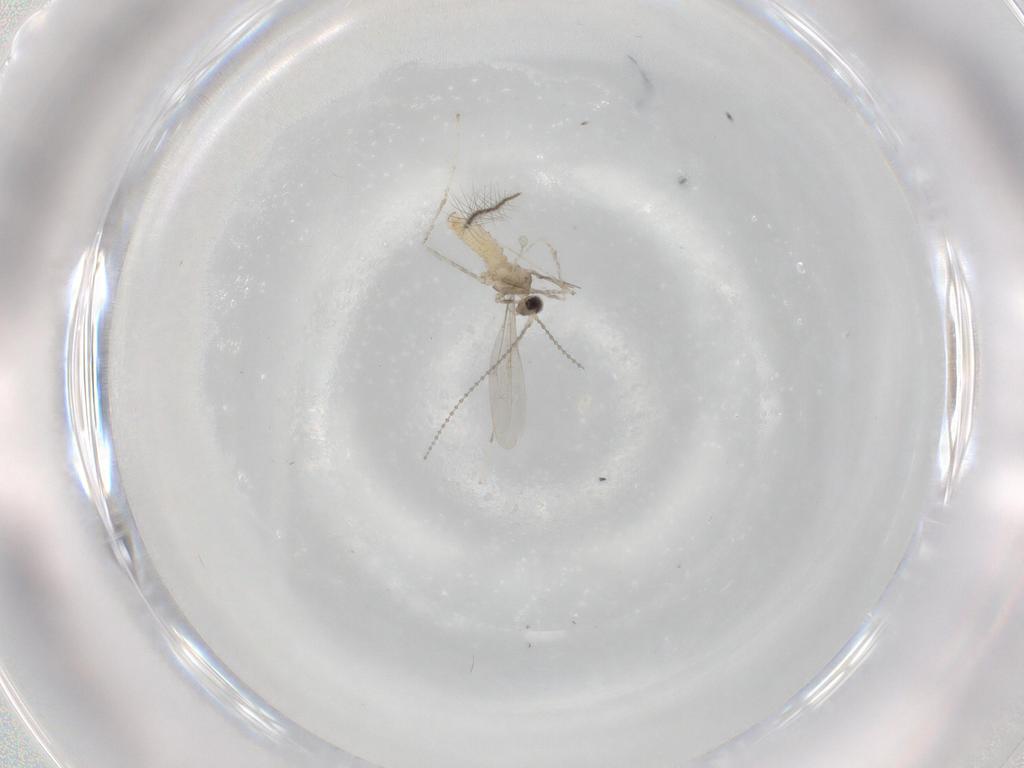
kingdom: Animalia
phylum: Arthropoda
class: Insecta
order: Diptera
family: Cecidomyiidae
